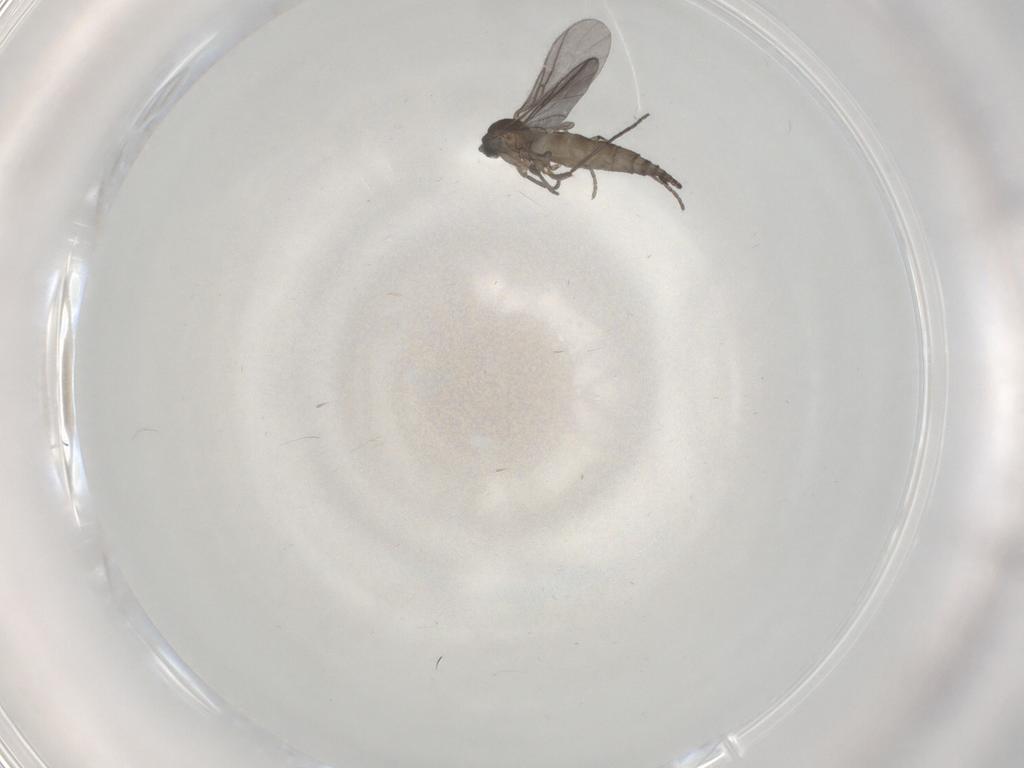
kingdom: Animalia
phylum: Arthropoda
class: Insecta
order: Diptera
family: Sciaridae
